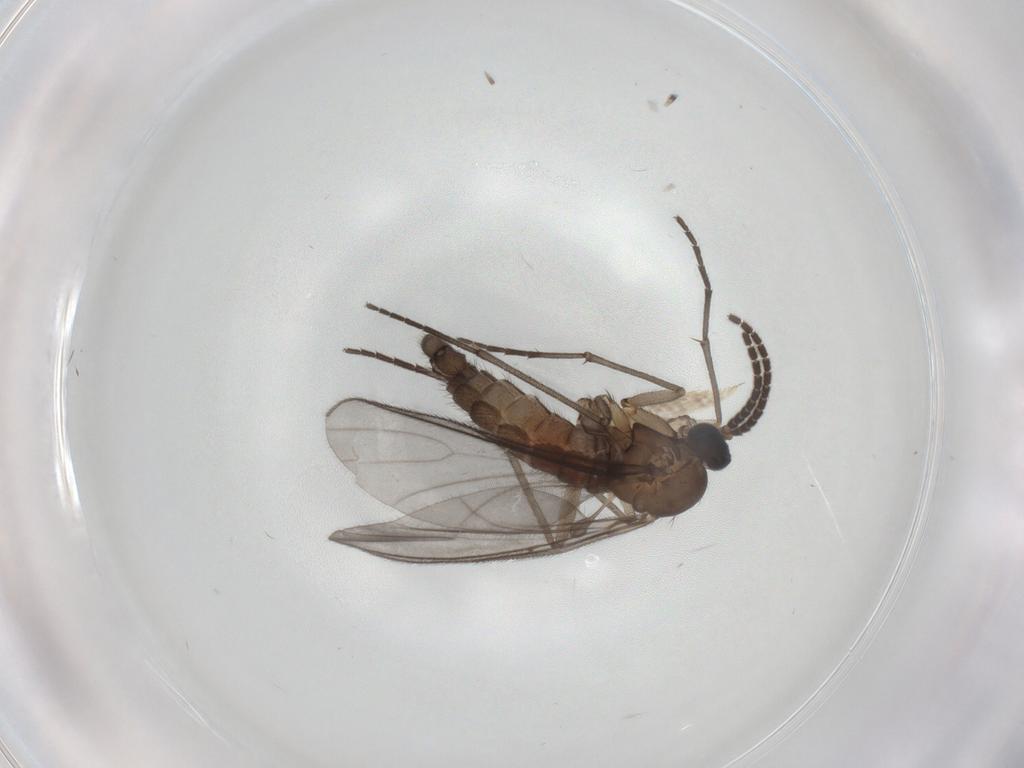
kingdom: Animalia
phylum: Arthropoda
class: Insecta
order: Diptera
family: Sciaridae
